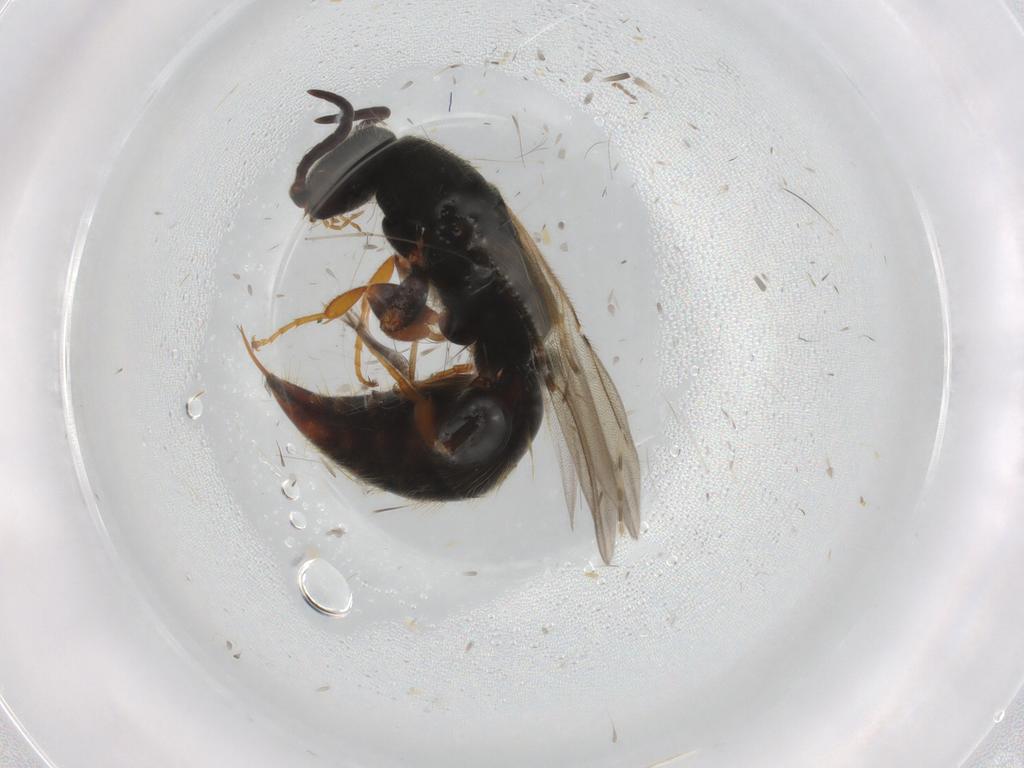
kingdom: Animalia
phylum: Arthropoda
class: Insecta
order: Hymenoptera
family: Bethylidae
